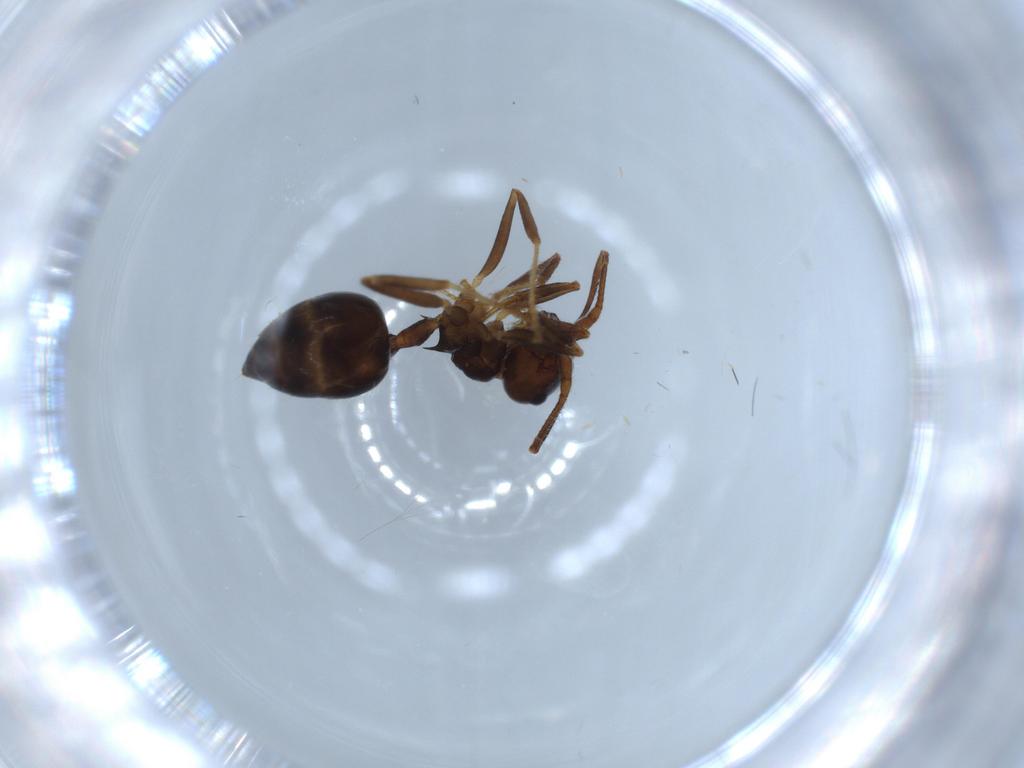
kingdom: Animalia
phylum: Arthropoda
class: Insecta
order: Hymenoptera
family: Formicidae
